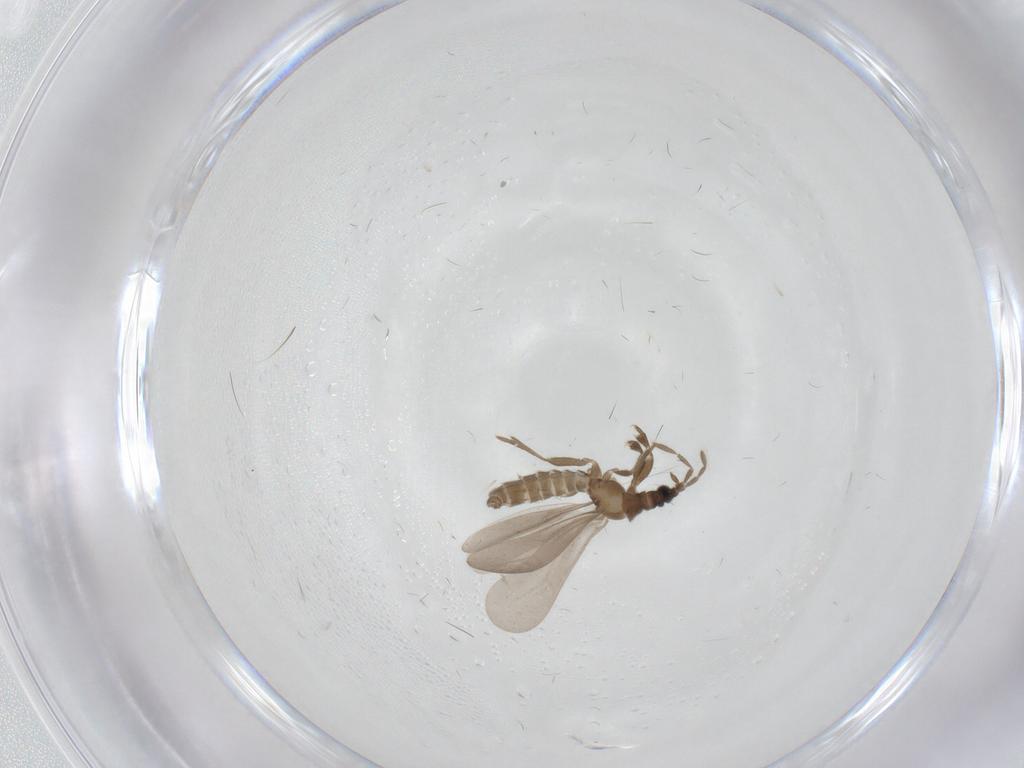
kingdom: Animalia
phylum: Arthropoda
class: Insecta
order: Hemiptera
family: Enicocephalidae
